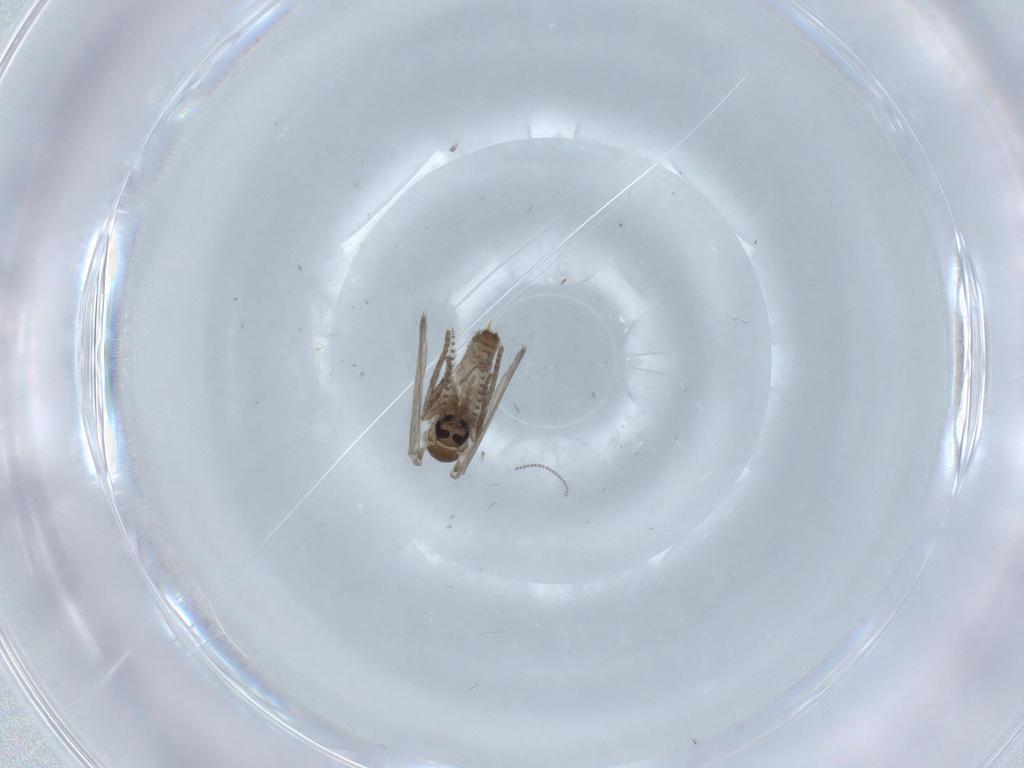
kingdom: Animalia
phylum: Arthropoda
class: Insecta
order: Diptera
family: Psychodidae
